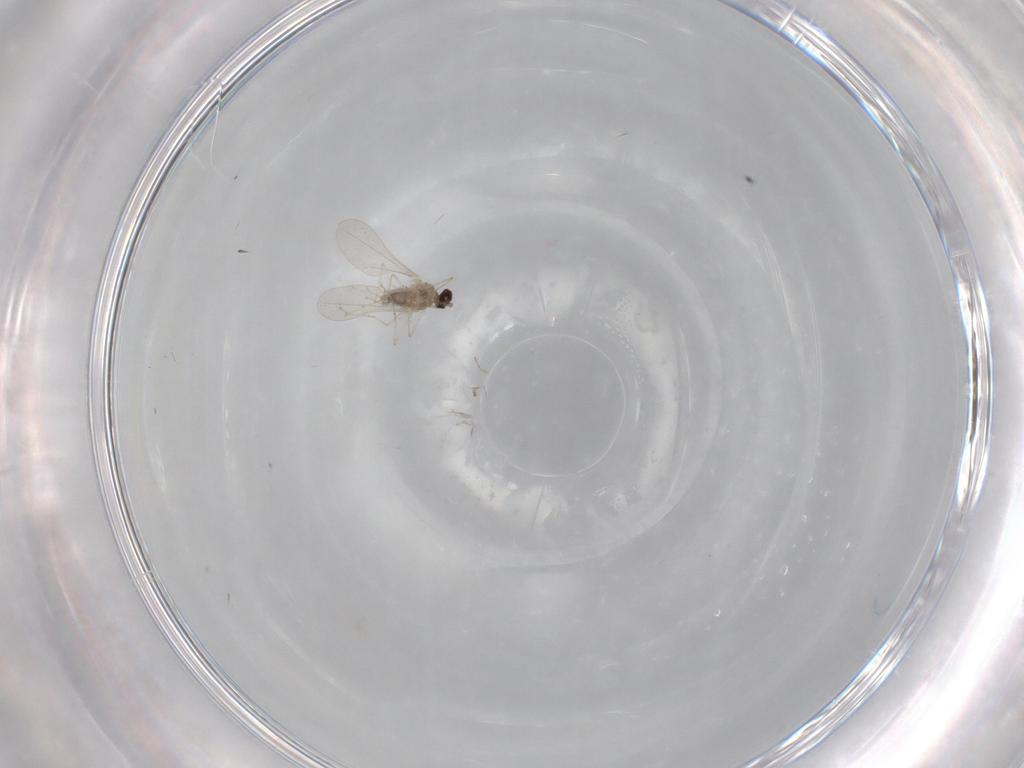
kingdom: Animalia
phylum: Arthropoda
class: Insecta
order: Diptera
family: Cecidomyiidae
